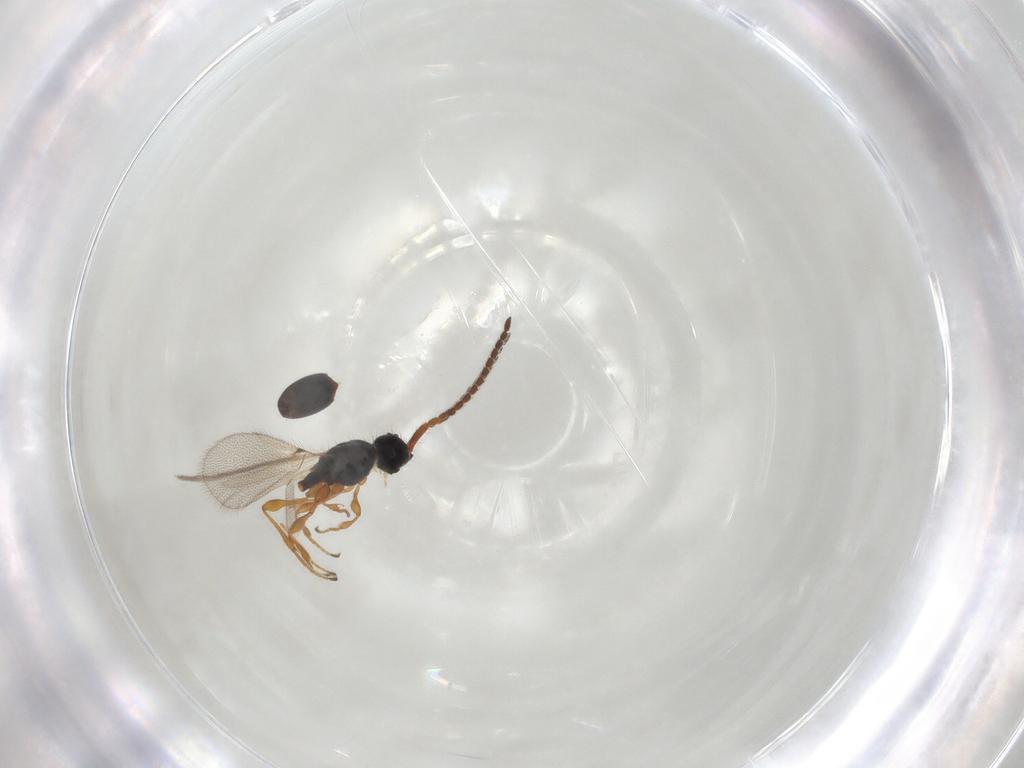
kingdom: Animalia
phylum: Arthropoda
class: Insecta
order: Hymenoptera
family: Diapriidae
